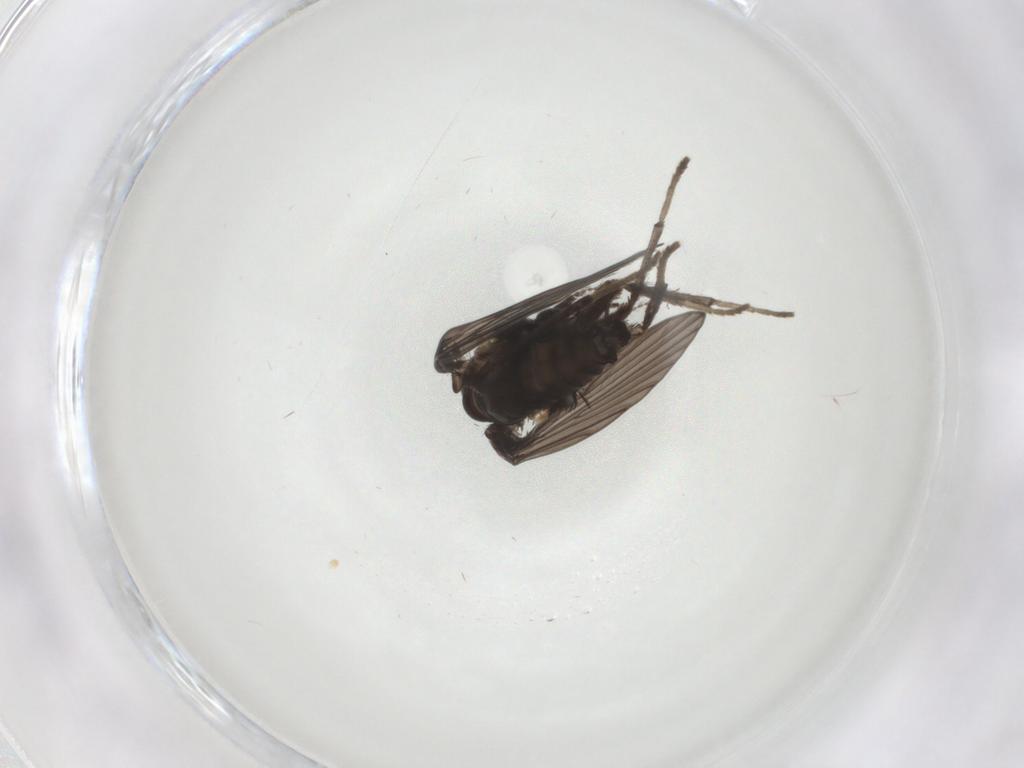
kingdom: Animalia
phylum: Arthropoda
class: Insecta
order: Diptera
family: Psychodidae
